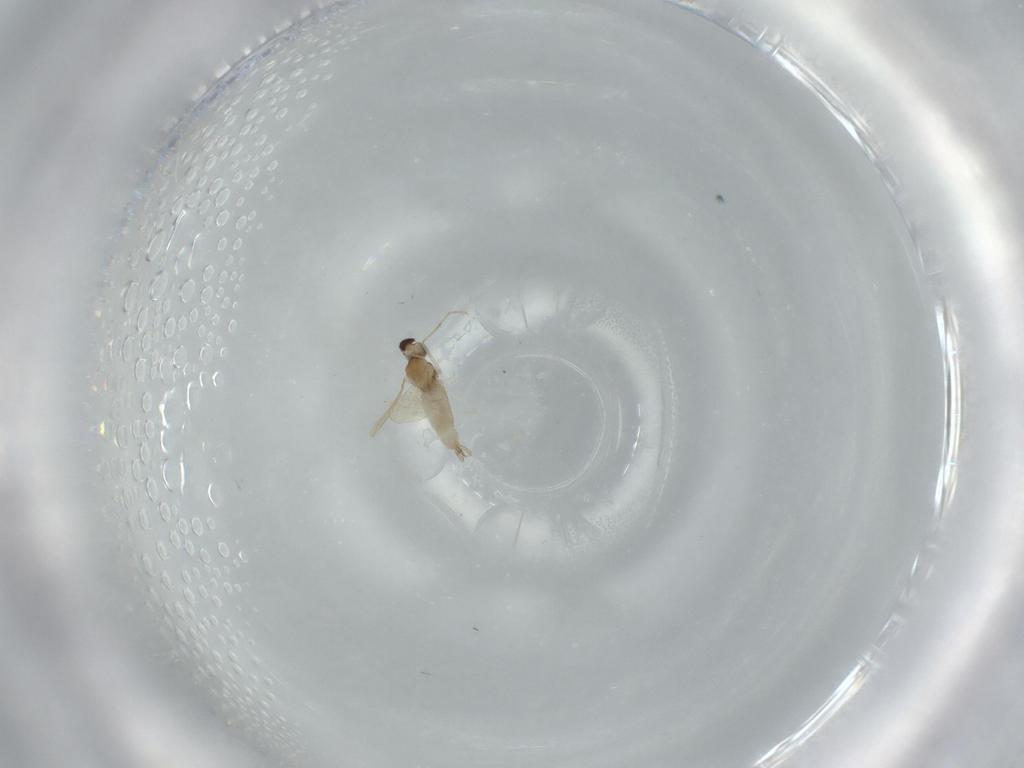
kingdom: Animalia
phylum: Arthropoda
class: Insecta
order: Diptera
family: Cecidomyiidae
